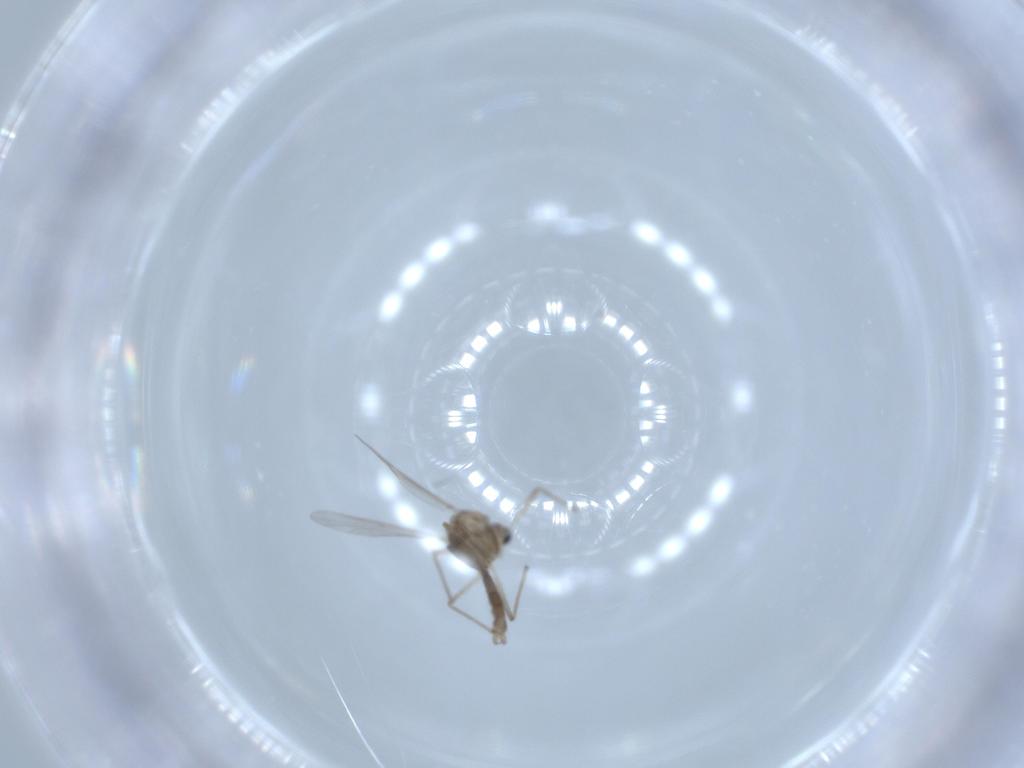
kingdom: Animalia
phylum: Arthropoda
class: Insecta
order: Diptera
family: Chironomidae
